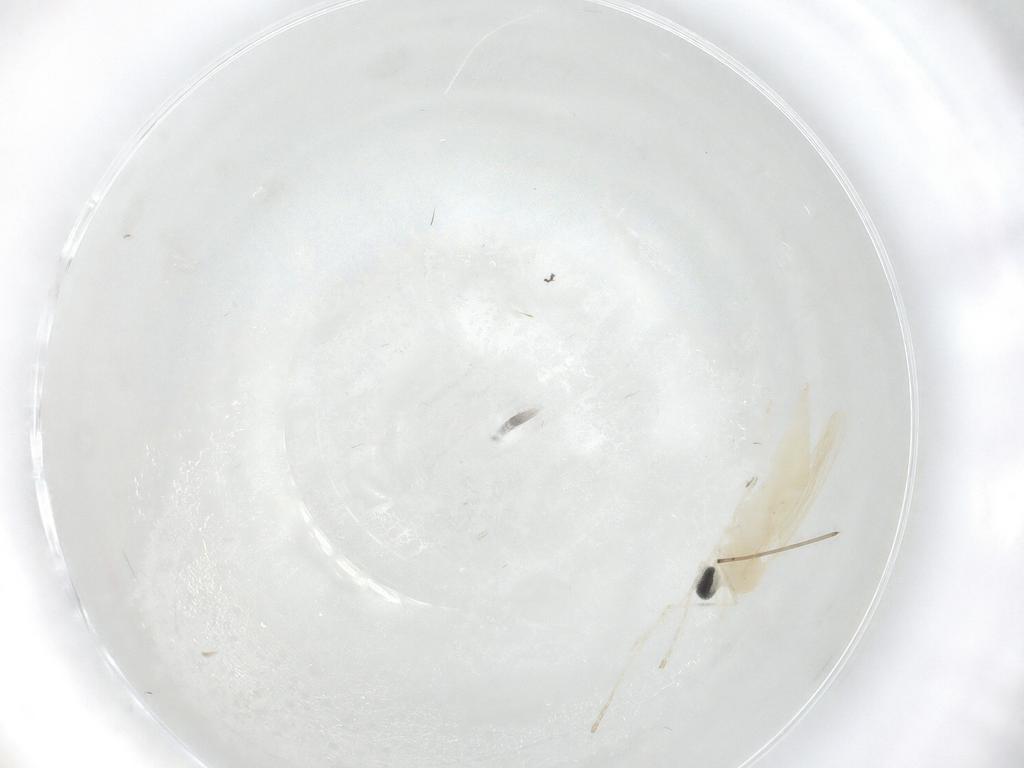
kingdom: Animalia
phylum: Arthropoda
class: Insecta
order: Diptera
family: Cecidomyiidae
